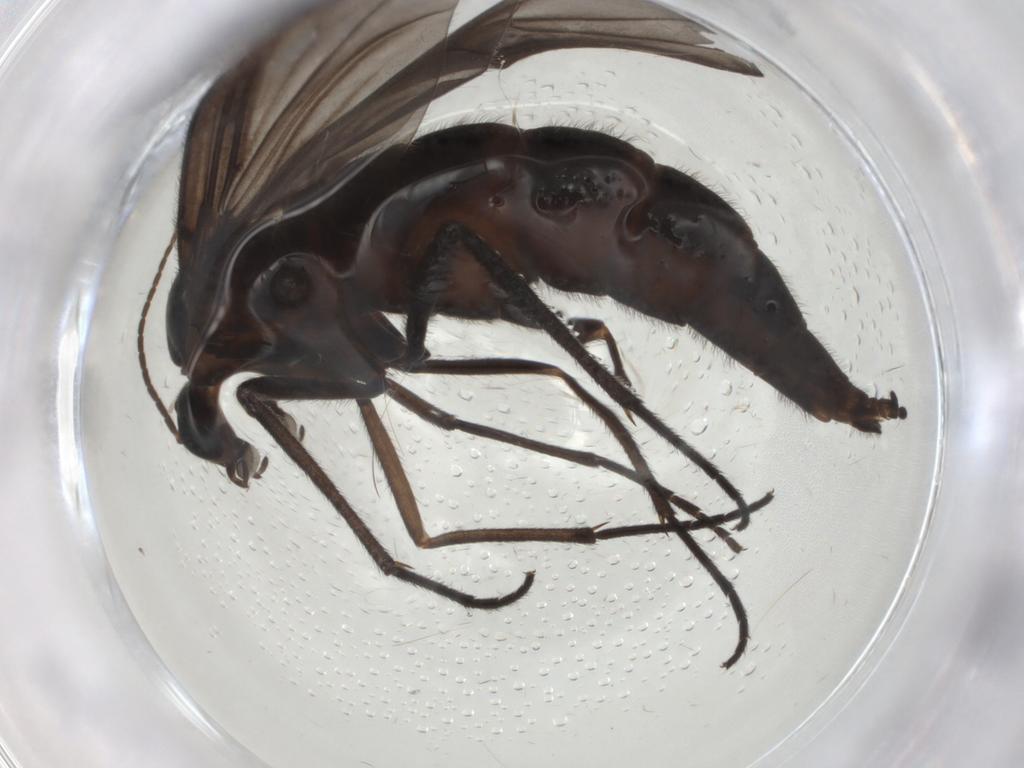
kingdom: Animalia
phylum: Arthropoda
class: Insecta
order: Diptera
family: Sciaridae
